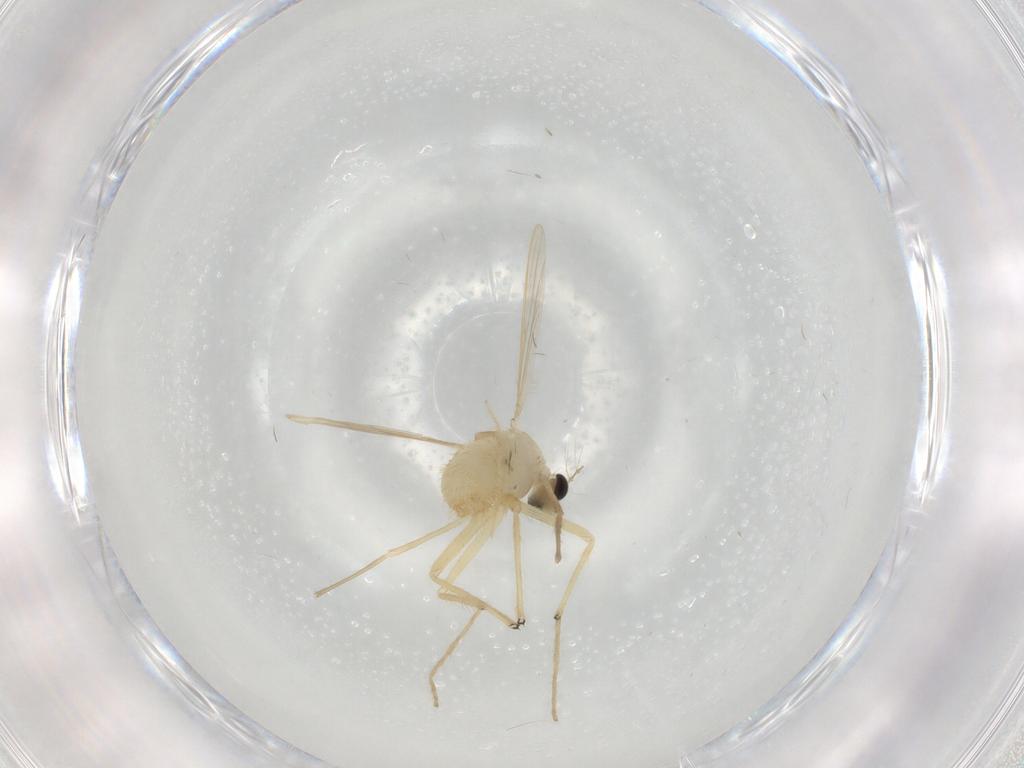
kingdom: Animalia
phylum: Arthropoda
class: Insecta
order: Diptera
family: Chironomidae
